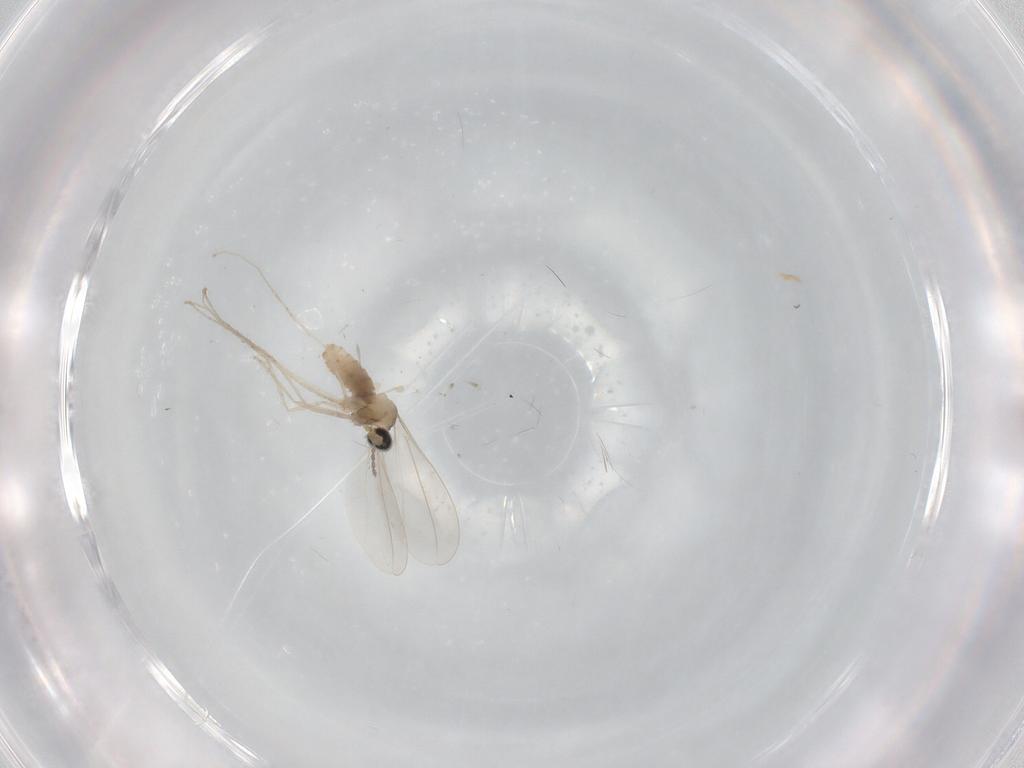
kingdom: Animalia
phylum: Arthropoda
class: Insecta
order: Diptera
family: Cecidomyiidae
